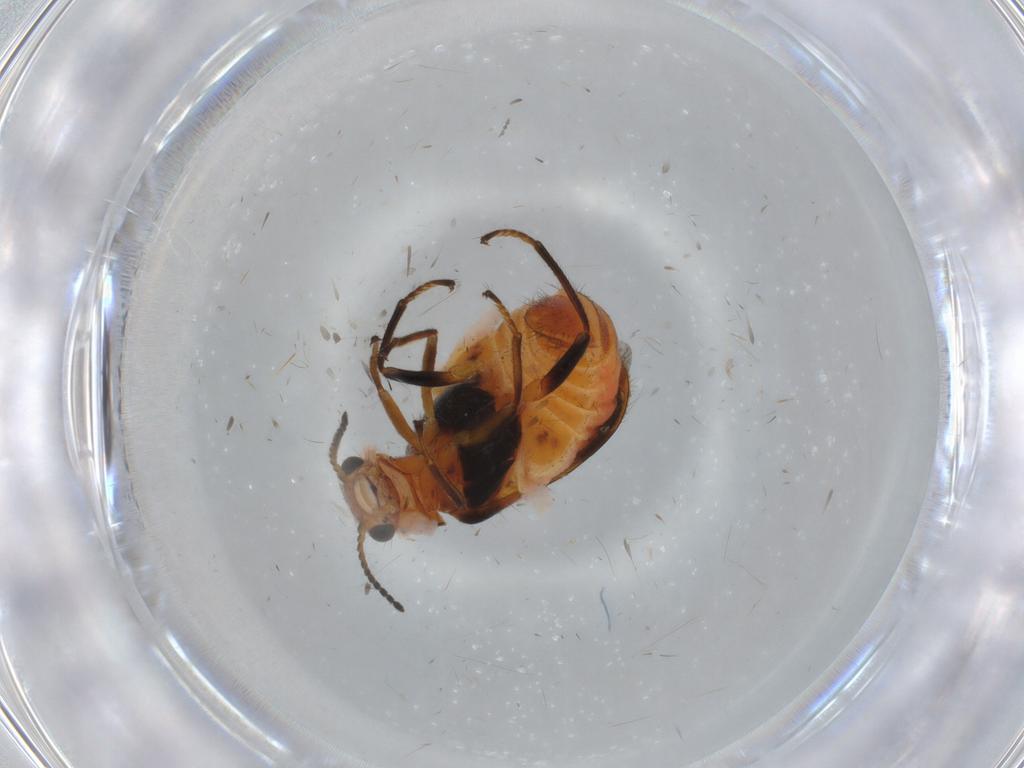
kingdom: Animalia
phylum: Arthropoda
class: Insecta
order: Coleoptera
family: Melyridae
